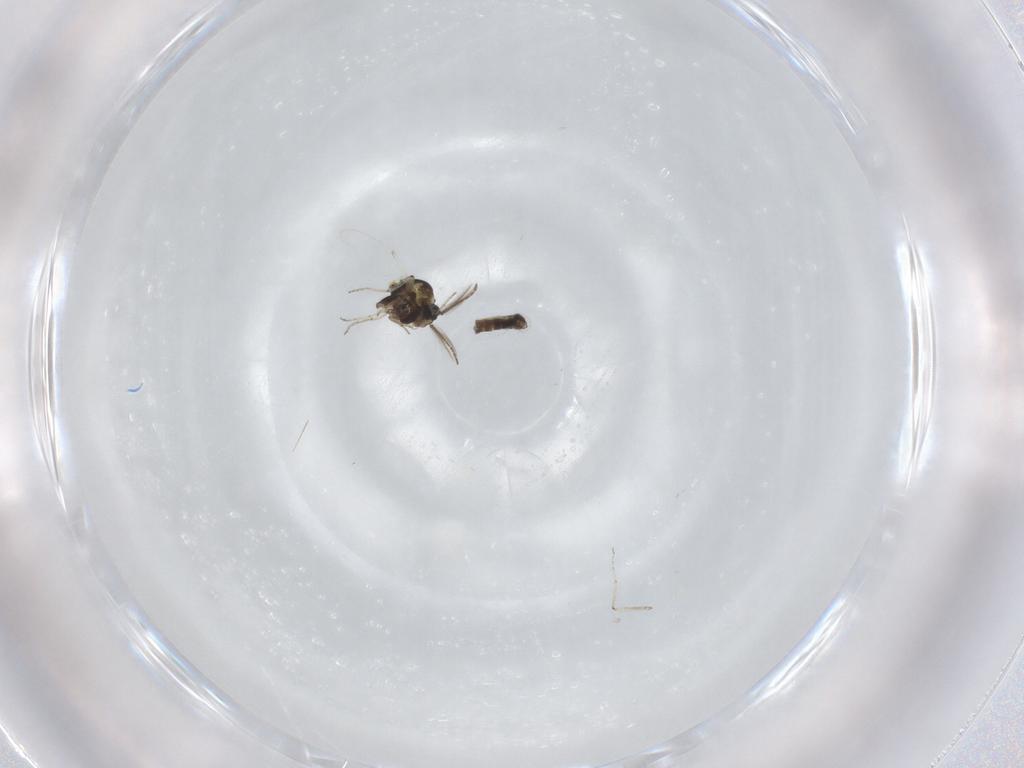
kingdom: Animalia
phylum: Arthropoda
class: Insecta
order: Diptera
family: Ceratopogonidae
